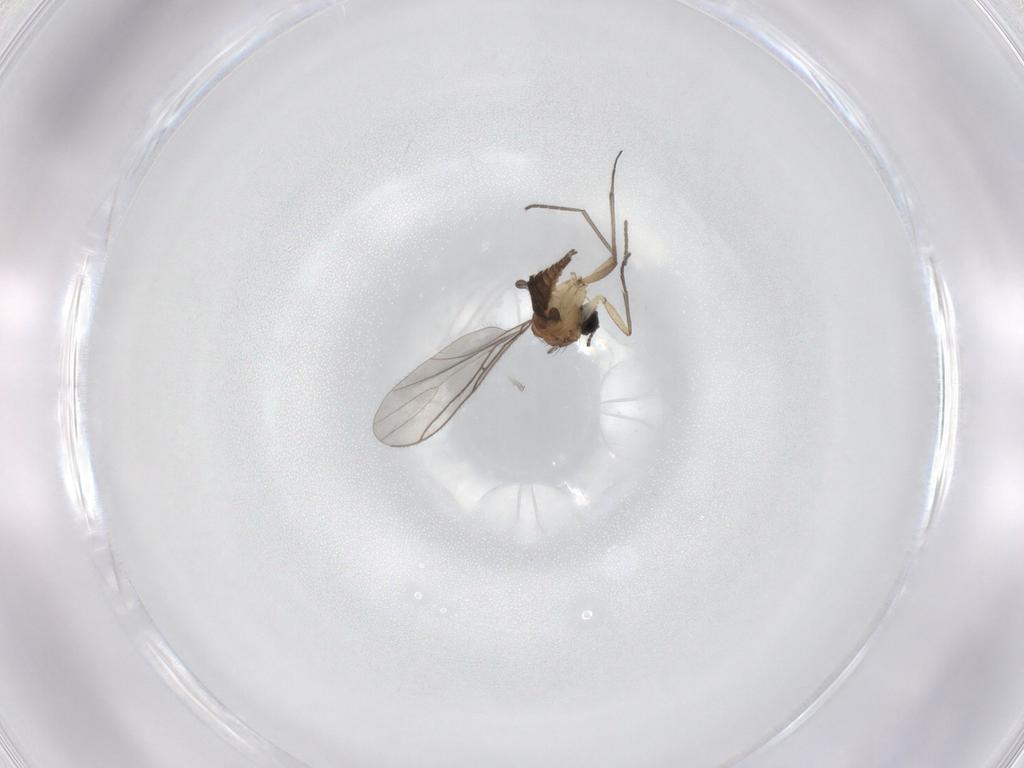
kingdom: Animalia
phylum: Arthropoda
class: Insecta
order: Diptera
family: Sciaridae
